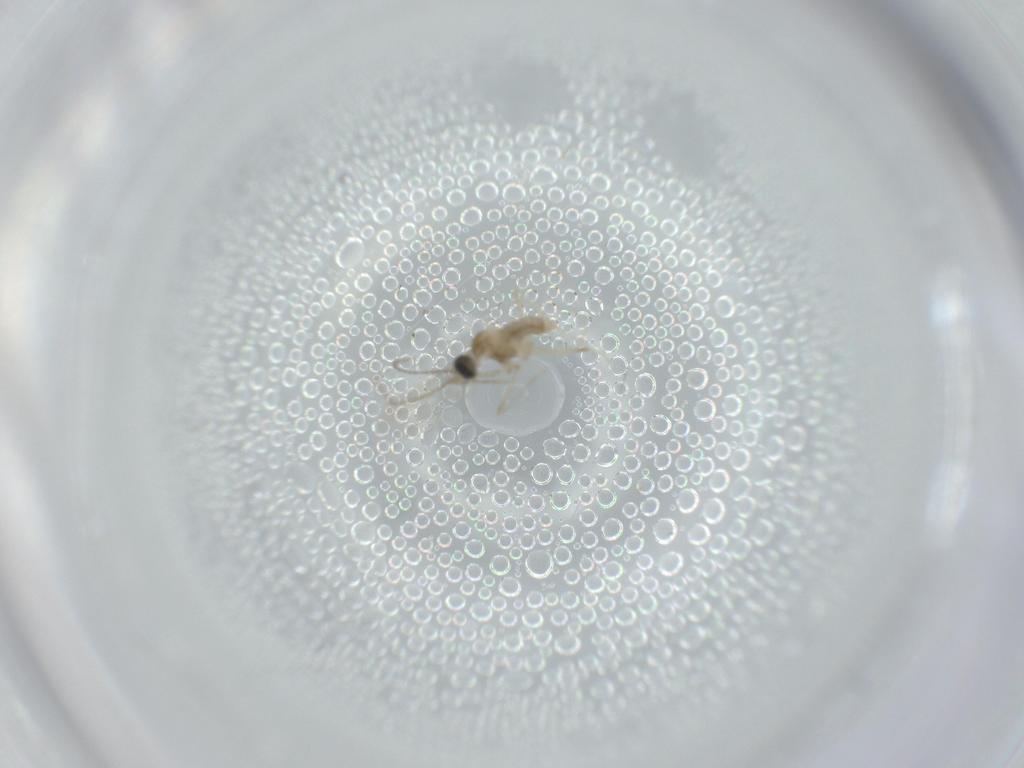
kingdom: Animalia
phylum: Arthropoda
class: Insecta
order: Diptera
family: Cecidomyiidae
